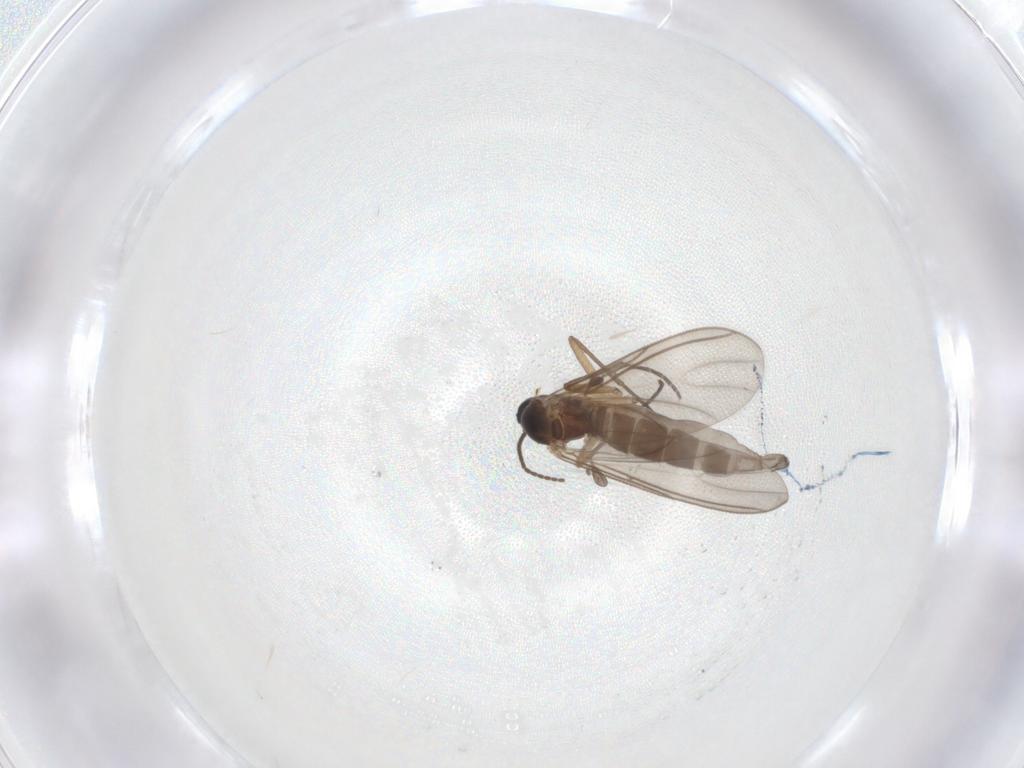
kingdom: Animalia
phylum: Arthropoda
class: Insecta
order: Diptera
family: Sciaridae
